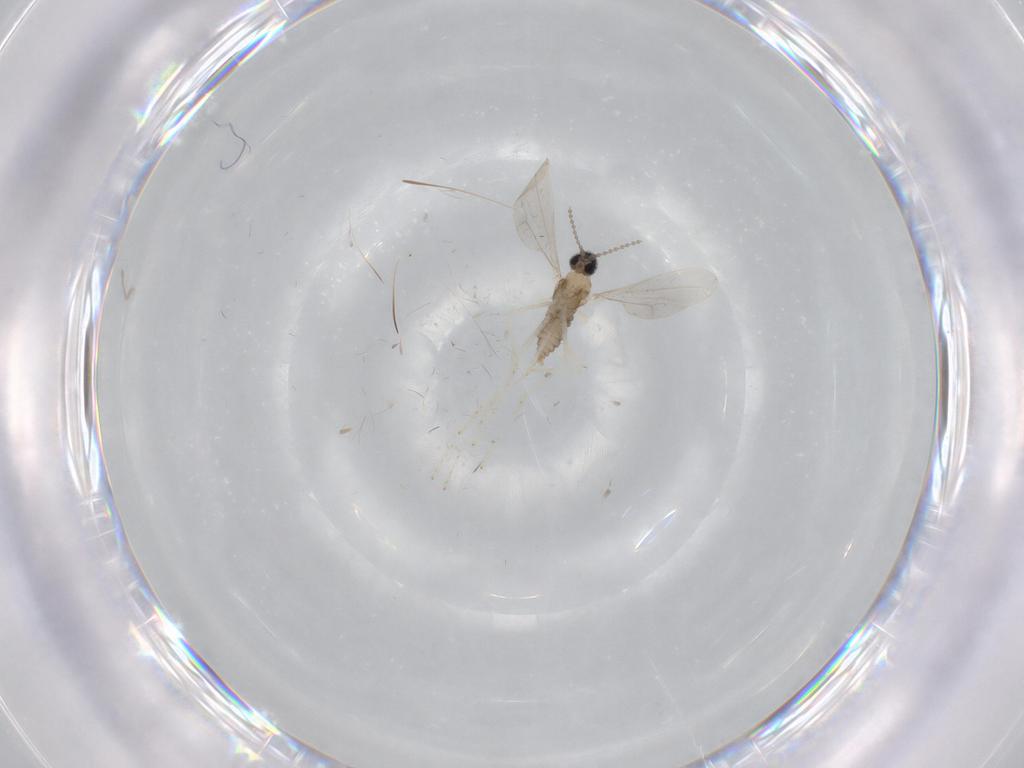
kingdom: Animalia
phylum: Arthropoda
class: Insecta
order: Diptera
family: Cecidomyiidae
